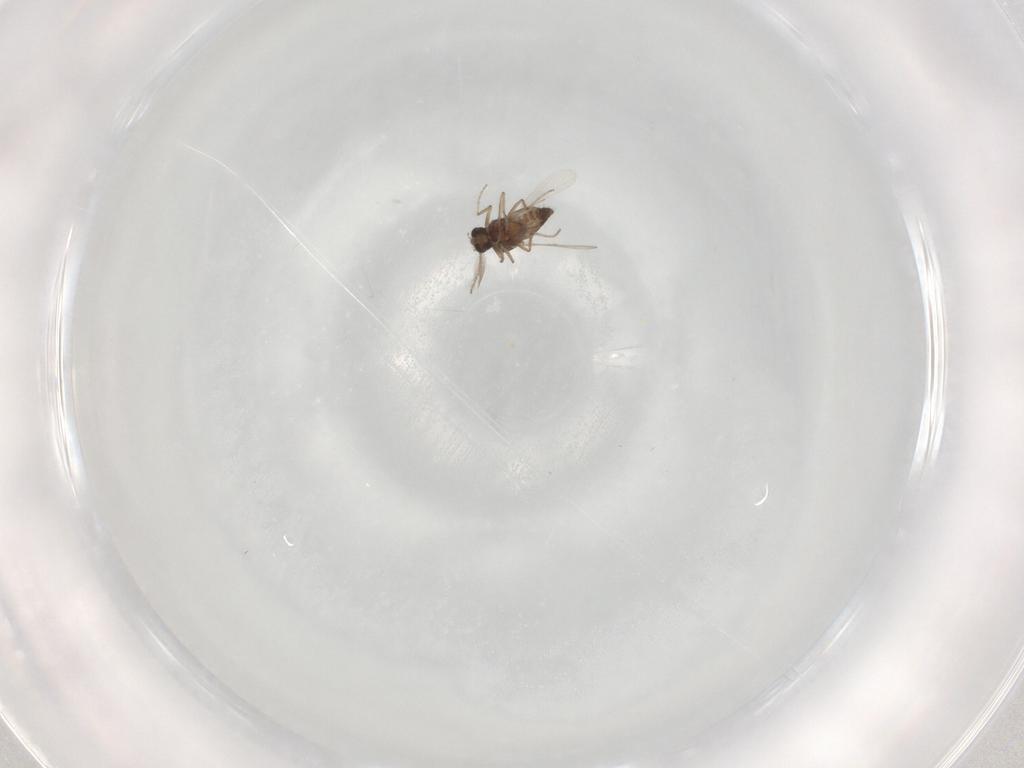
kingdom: Animalia
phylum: Arthropoda
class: Insecta
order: Diptera
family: Ceratopogonidae
